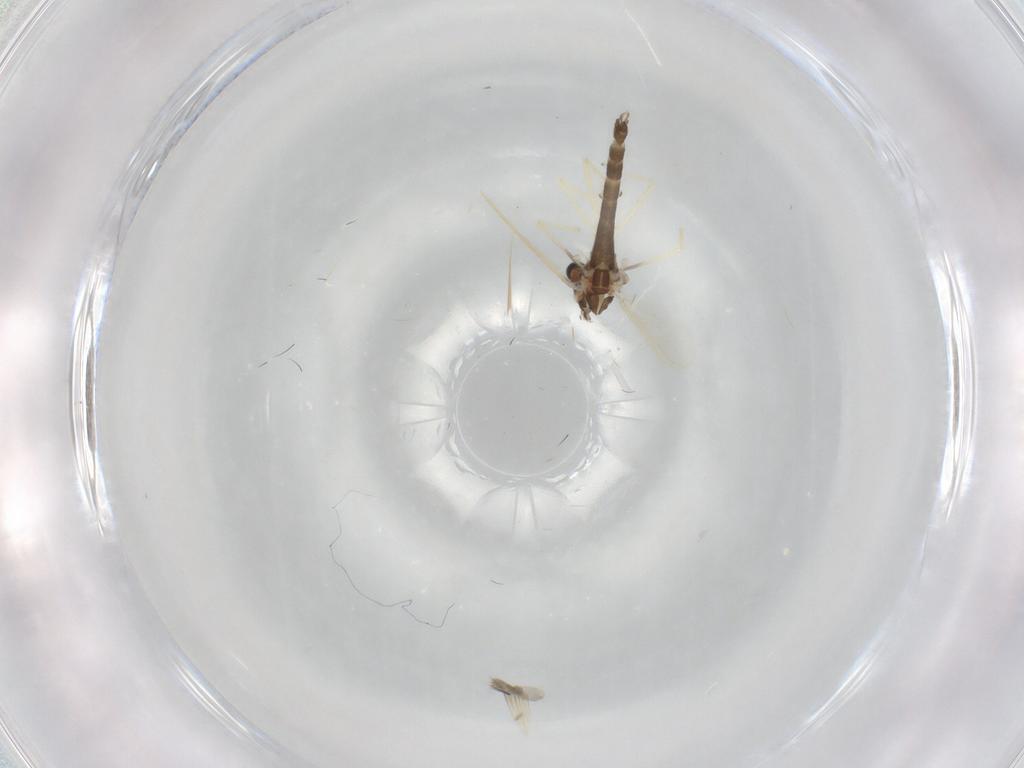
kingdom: Animalia
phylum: Arthropoda
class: Insecta
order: Diptera
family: Chironomidae
